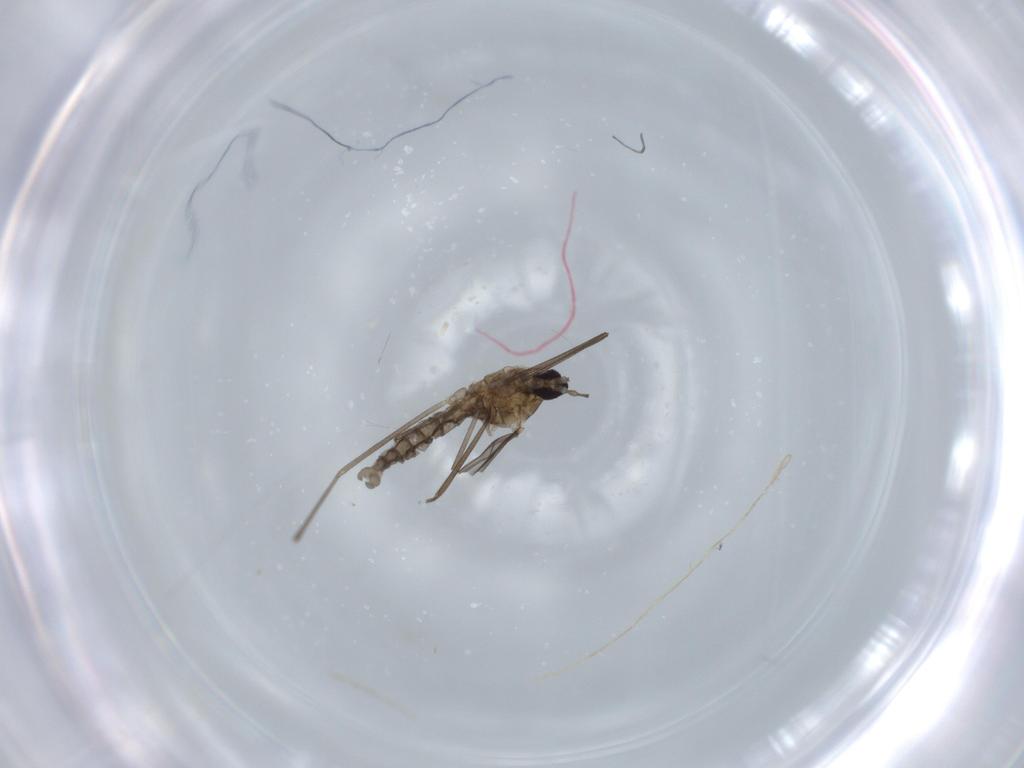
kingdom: Animalia
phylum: Arthropoda
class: Insecta
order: Diptera
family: Cecidomyiidae
